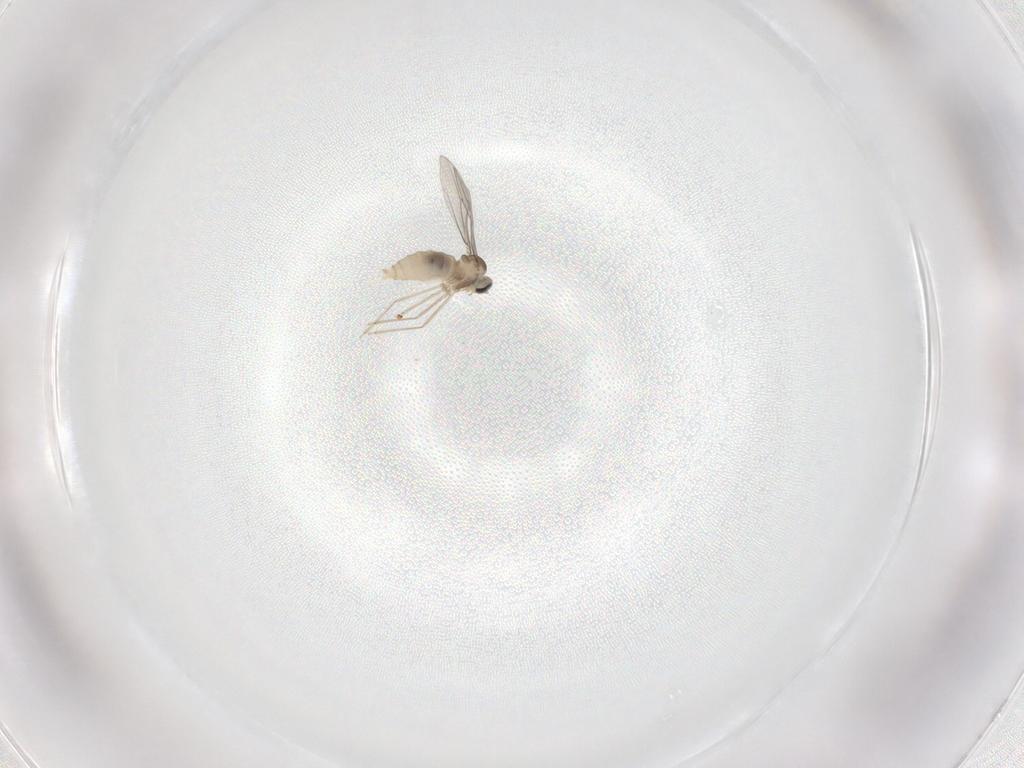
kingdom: Animalia
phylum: Arthropoda
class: Insecta
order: Diptera
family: Cecidomyiidae
